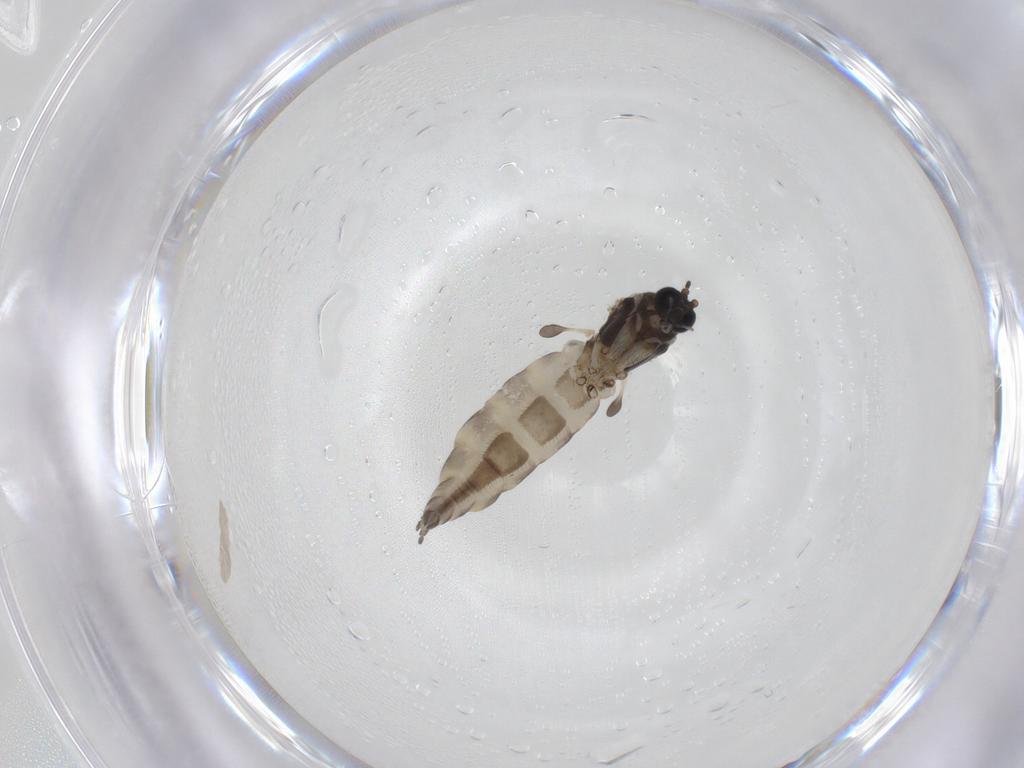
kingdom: Animalia
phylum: Arthropoda
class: Insecta
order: Diptera
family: Sciaridae
